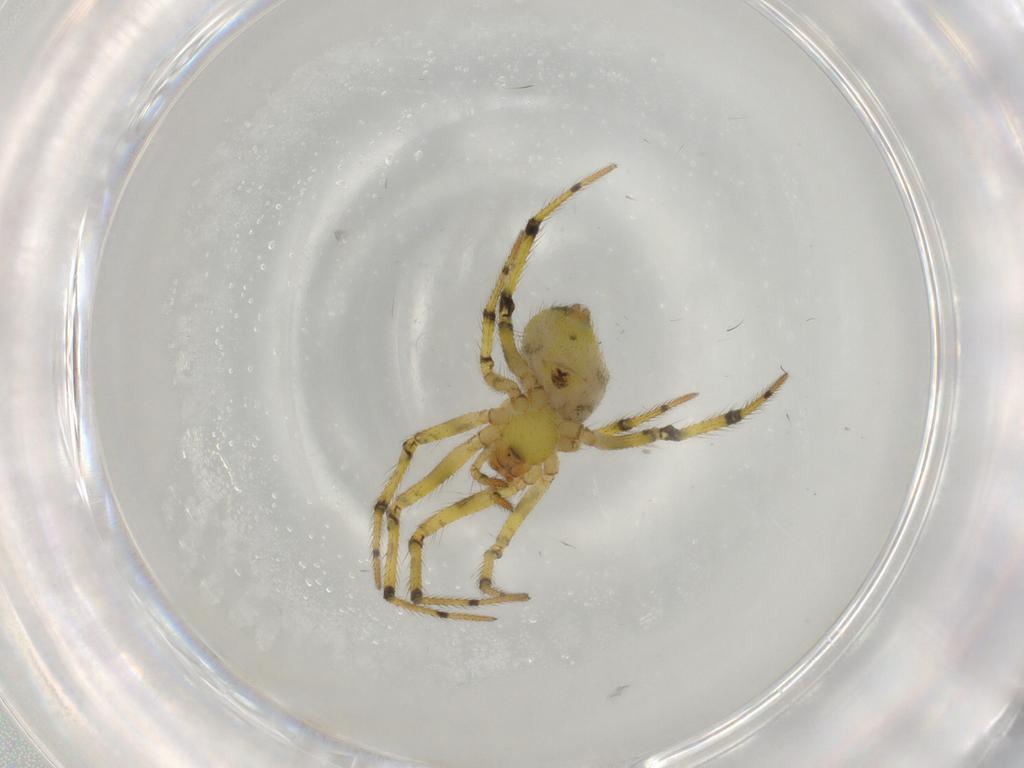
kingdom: Animalia
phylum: Arthropoda
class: Arachnida
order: Araneae
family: Theridiidae
